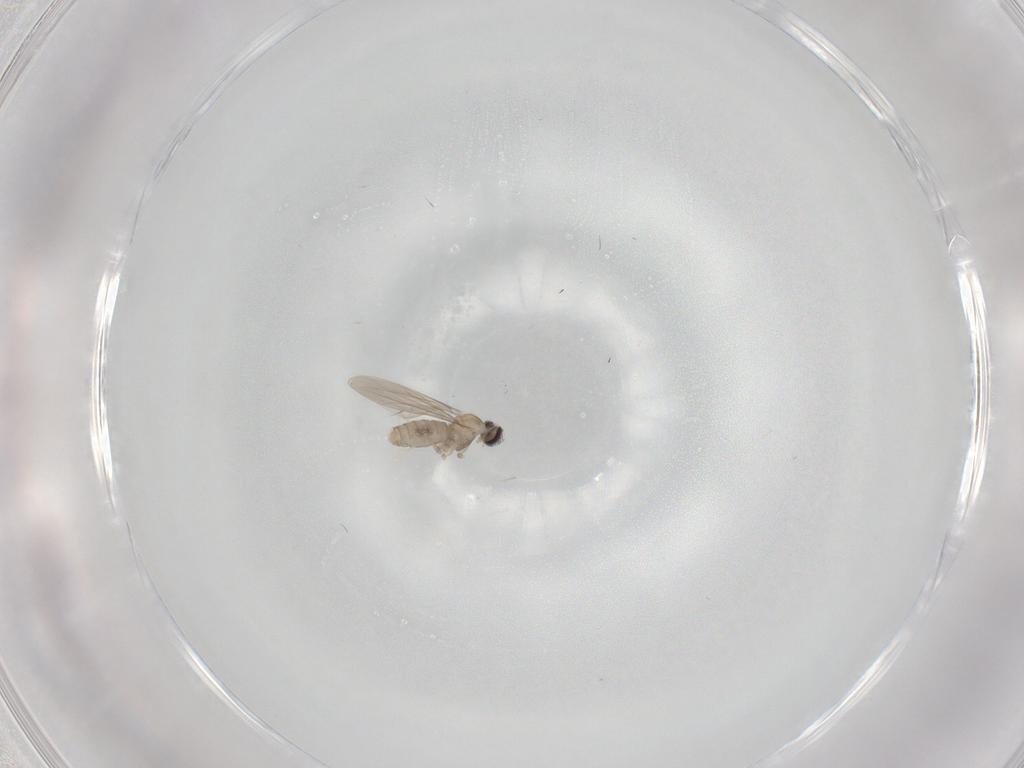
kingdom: Animalia
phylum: Arthropoda
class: Insecta
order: Diptera
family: Cecidomyiidae
